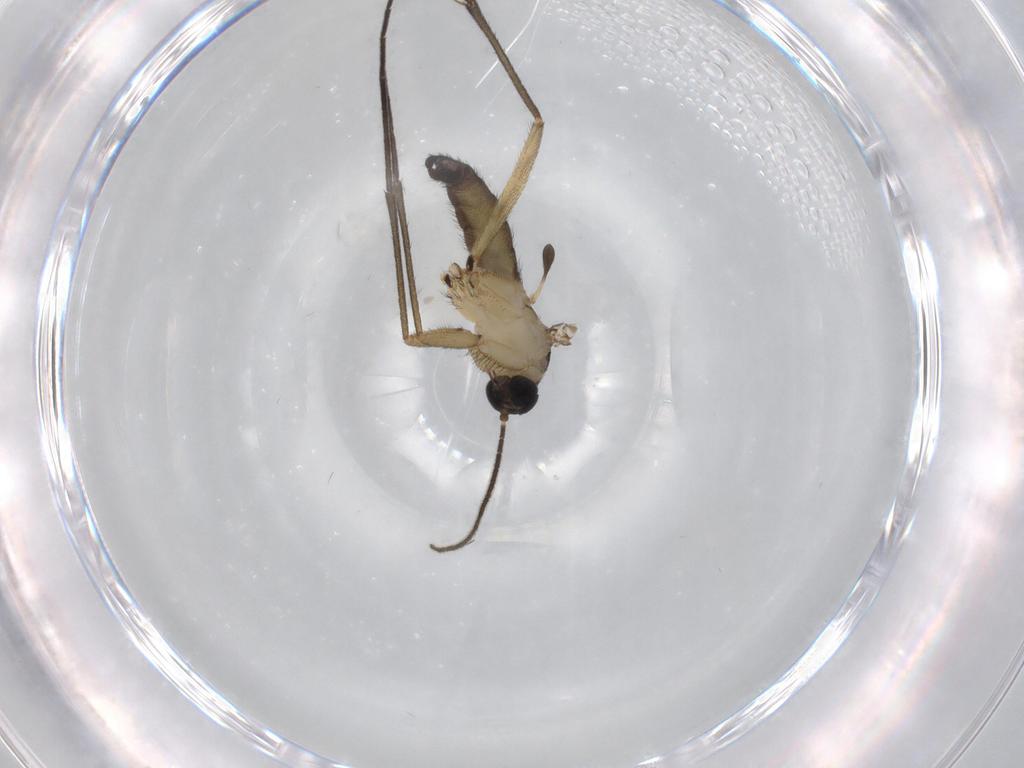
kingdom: Animalia
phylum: Arthropoda
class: Insecta
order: Diptera
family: Sciaridae
